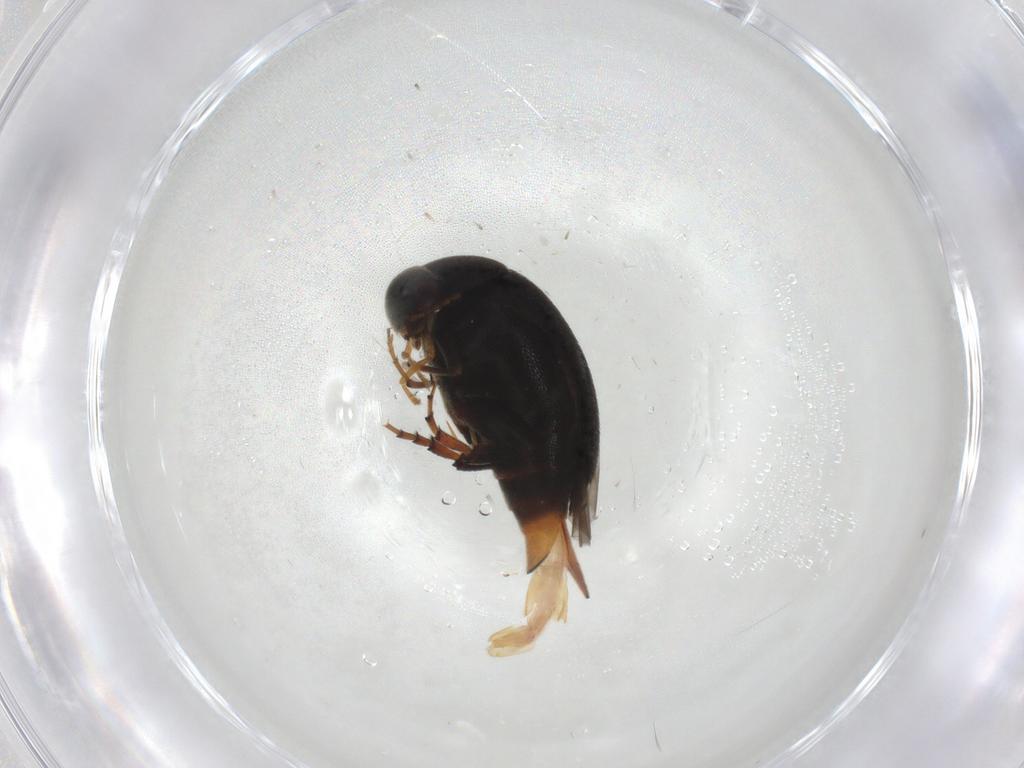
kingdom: Animalia
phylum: Arthropoda
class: Insecta
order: Coleoptera
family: Mordellidae
